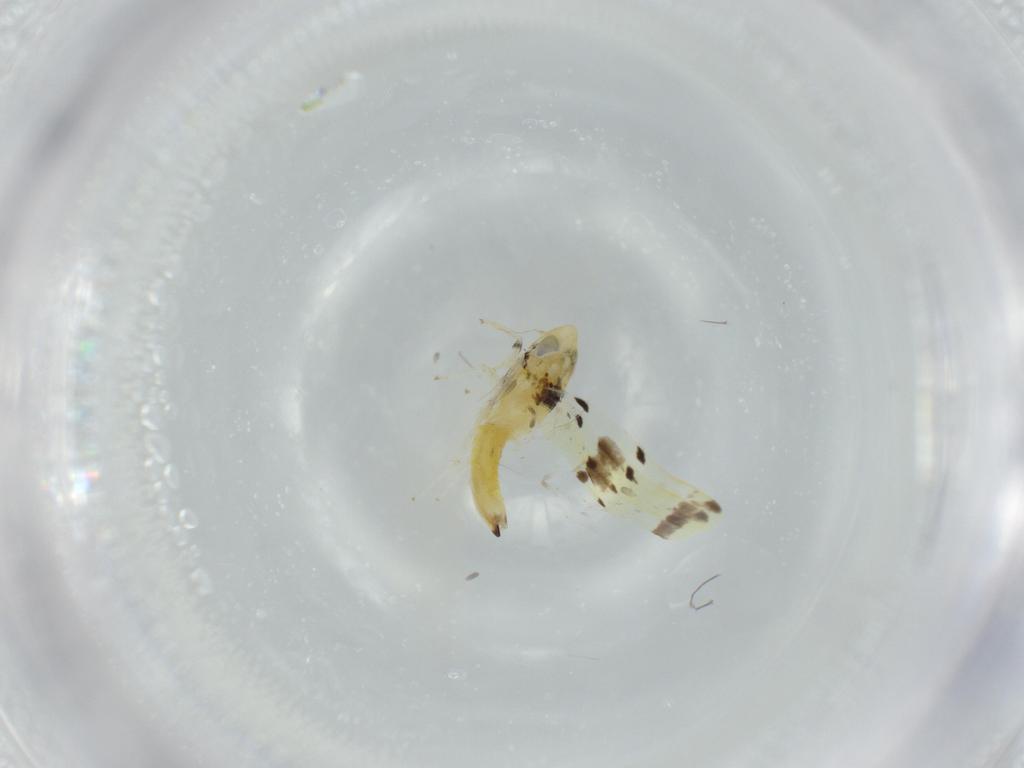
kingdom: Animalia
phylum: Arthropoda
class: Insecta
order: Hemiptera
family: Cicadellidae
